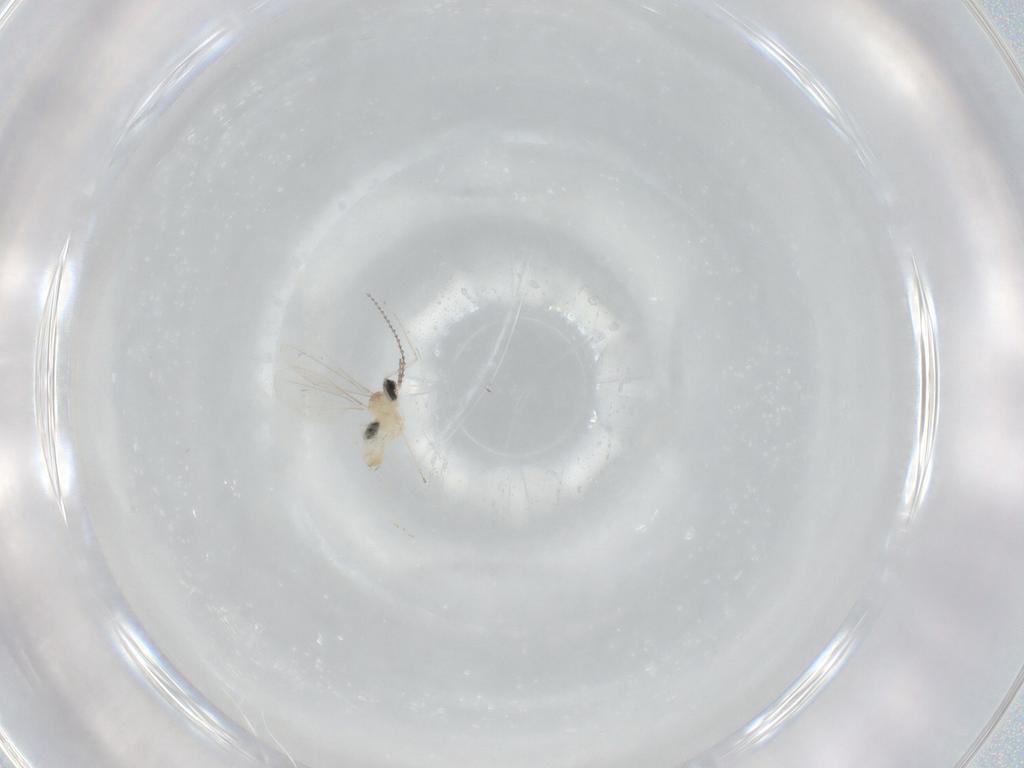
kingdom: Animalia
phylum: Arthropoda
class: Insecta
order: Diptera
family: Cecidomyiidae
